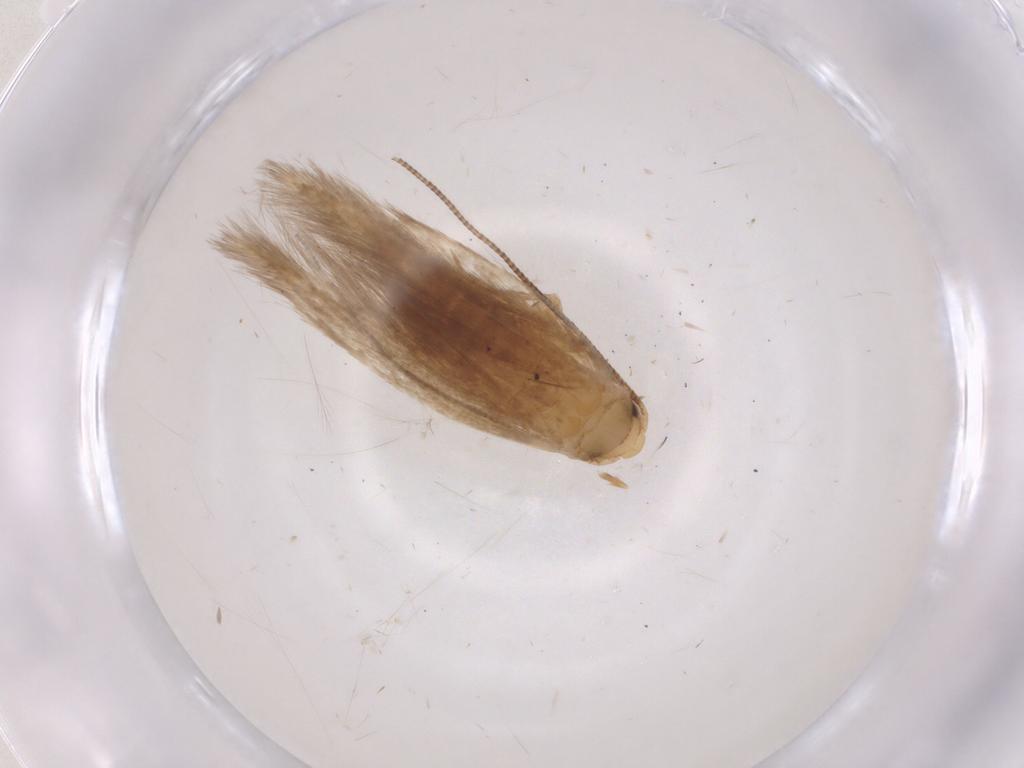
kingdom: Animalia
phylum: Arthropoda
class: Insecta
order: Lepidoptera
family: Tineidae
